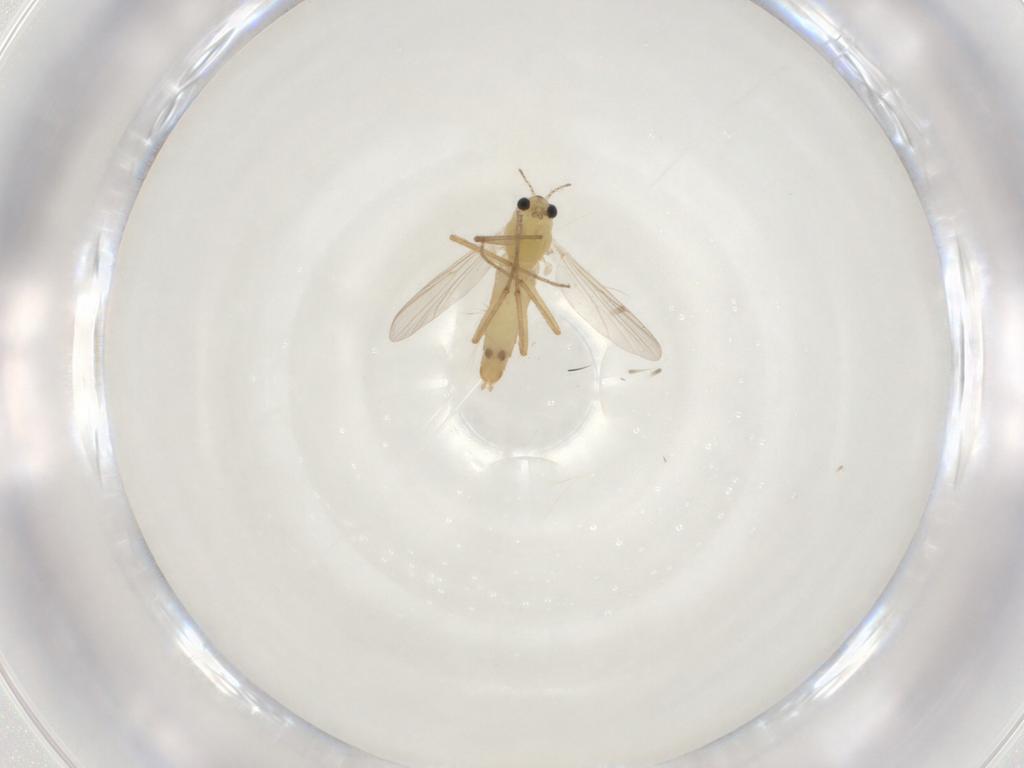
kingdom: Animalia
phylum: Arthropoda
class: Insecta
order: Diptera
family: Chironomidae
